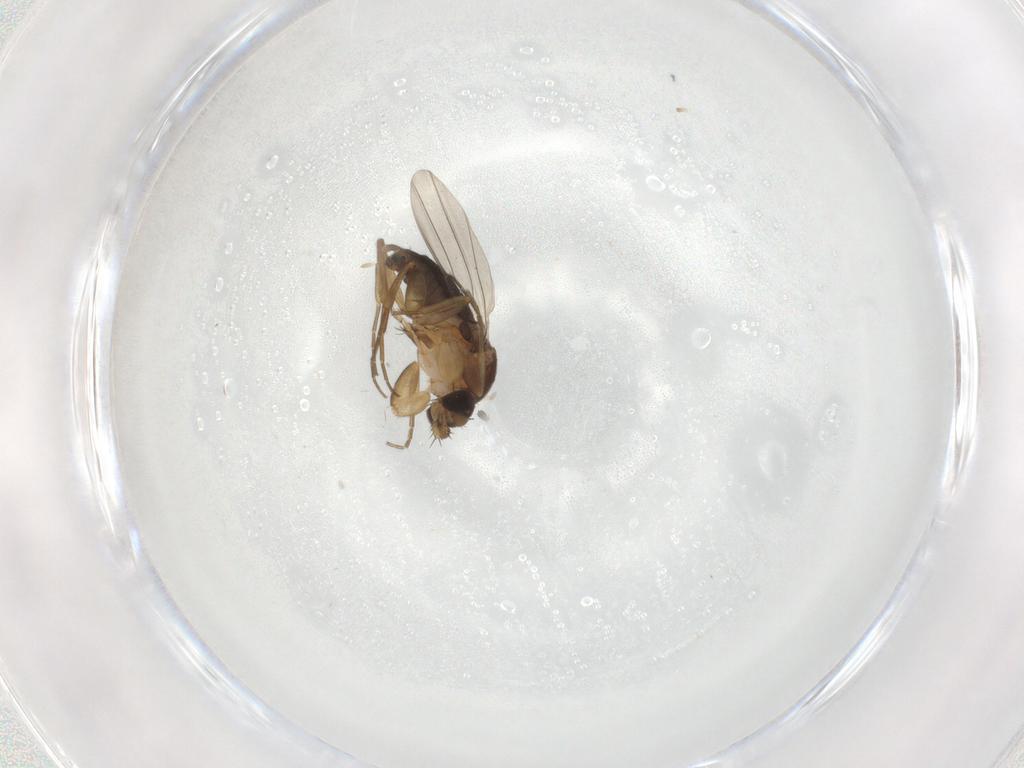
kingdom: Animalia
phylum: Arthropoda
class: Insecta
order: Diptera
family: Phoridae
